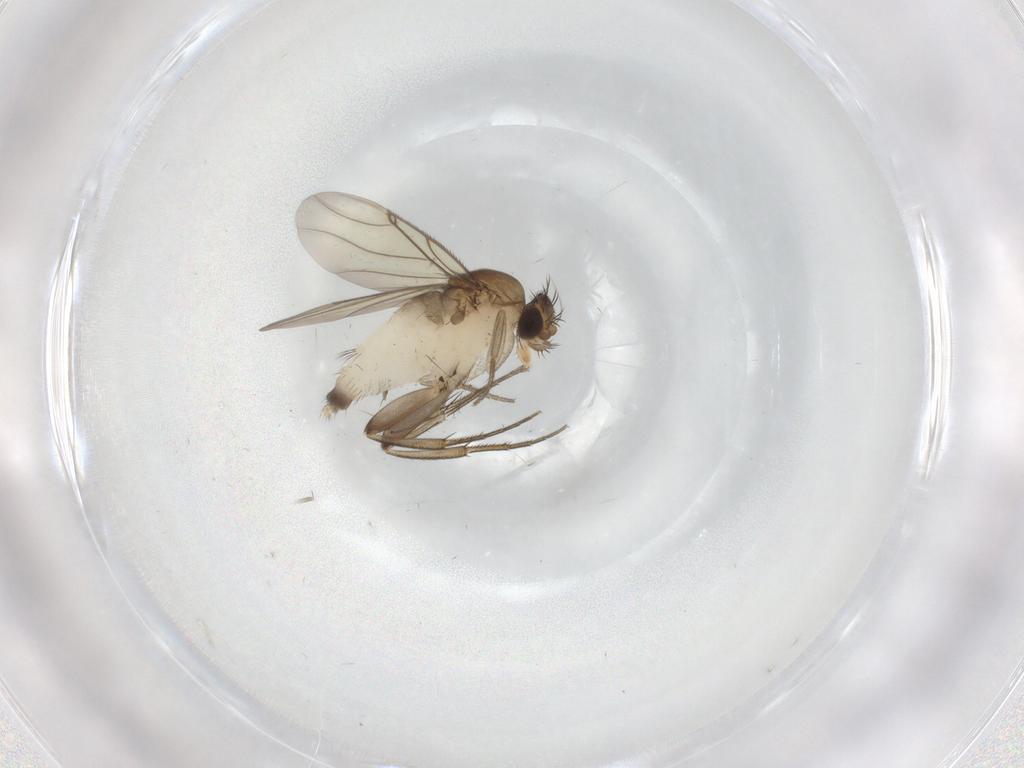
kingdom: Animalia
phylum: Arthropoda
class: Insecta
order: Diptera
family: Phoridae
